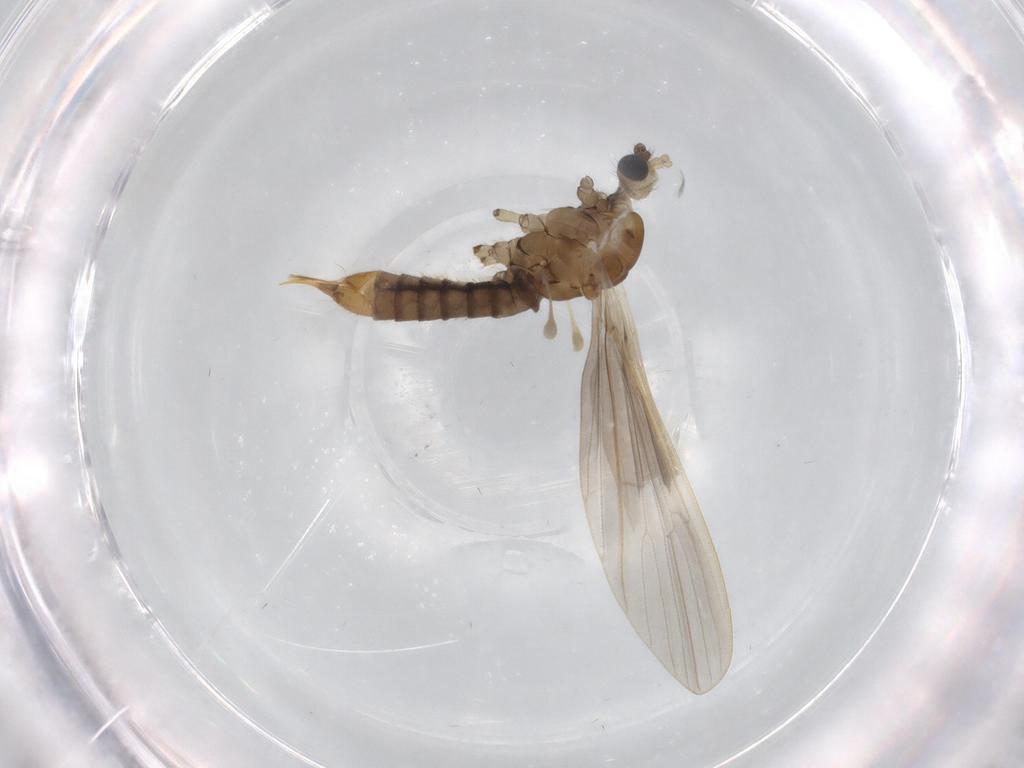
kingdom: Animalia
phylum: Arthropoda
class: Insecta
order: Diptera
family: Limoniidae
